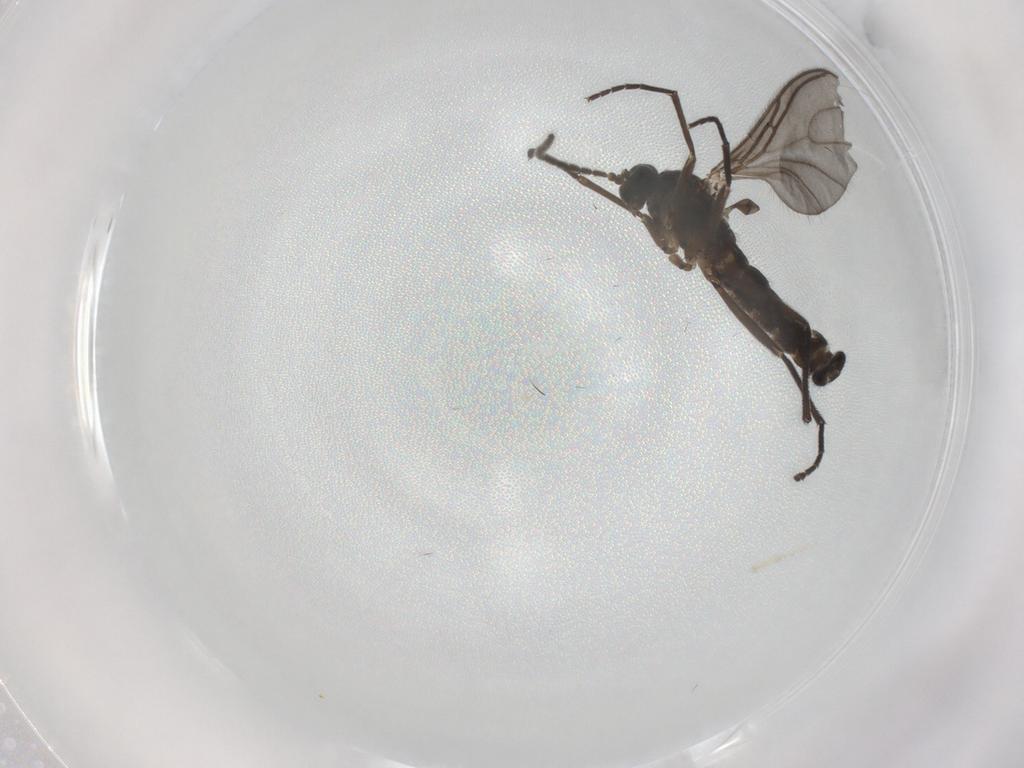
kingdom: Animalia
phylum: Arthropoda
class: Insecta
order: Diptera
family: Sciaridae
